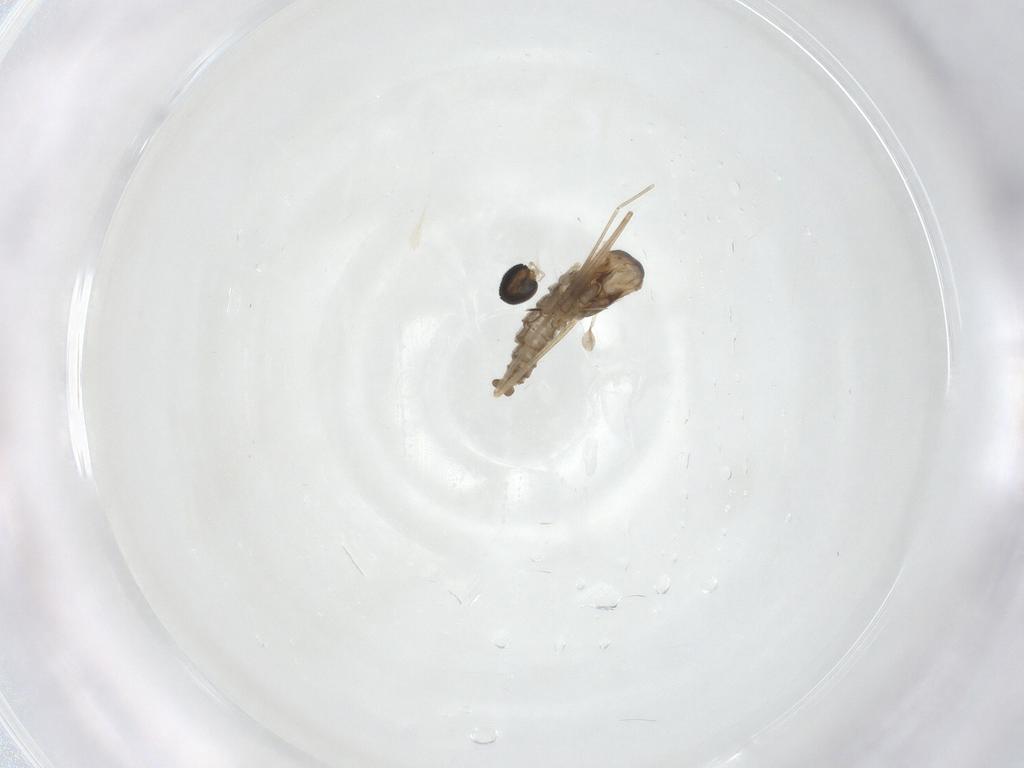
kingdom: Animalia
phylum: Arthropoda
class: Insecta
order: Diptera
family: Cecidomyiidae
